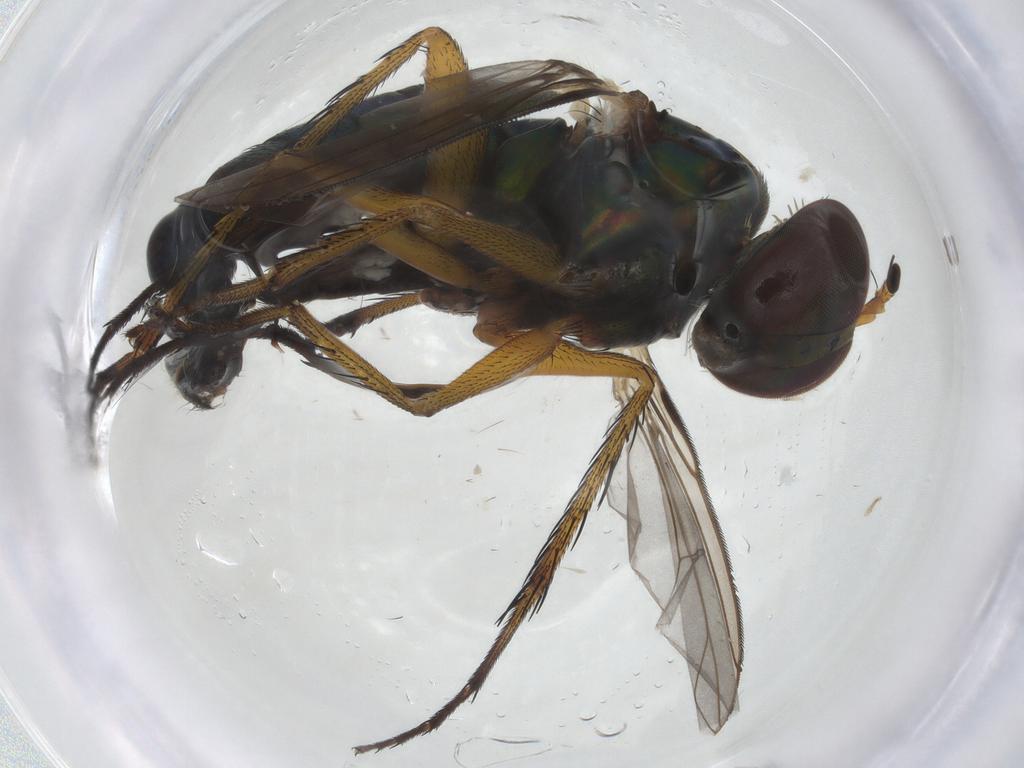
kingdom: Animalia
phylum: Arthropoda
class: Insecta
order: Diptera
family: Dolichopodidae
